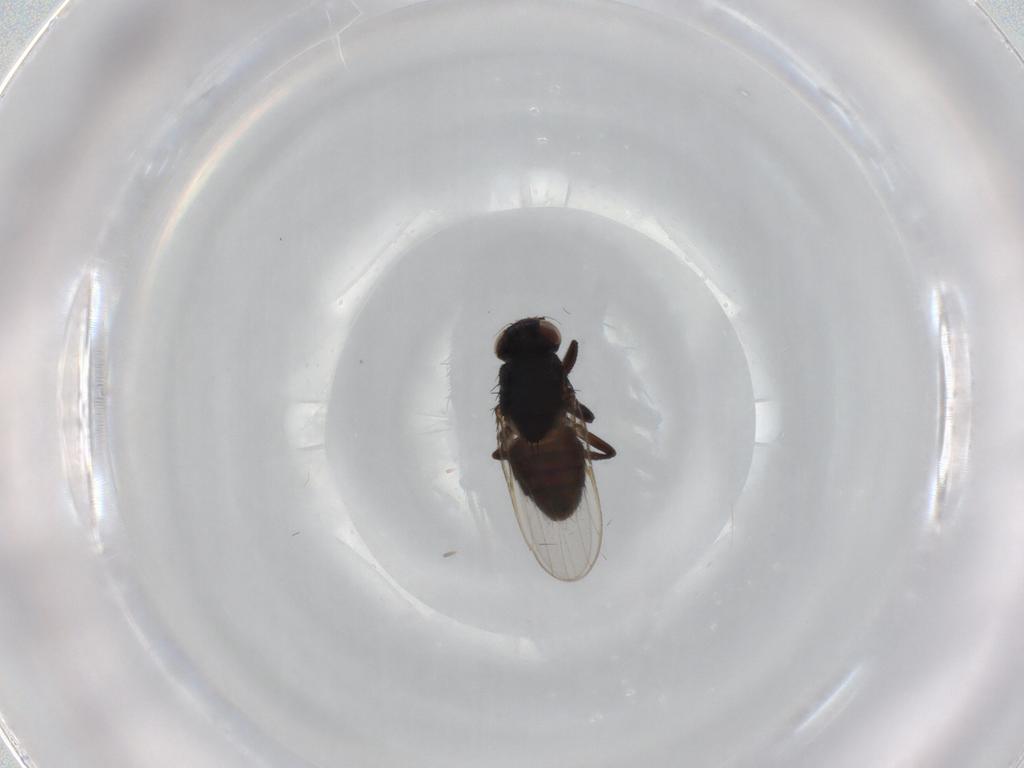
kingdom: Animalia
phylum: Arthropoda
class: Insecta
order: Diptera
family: Chloropidae
